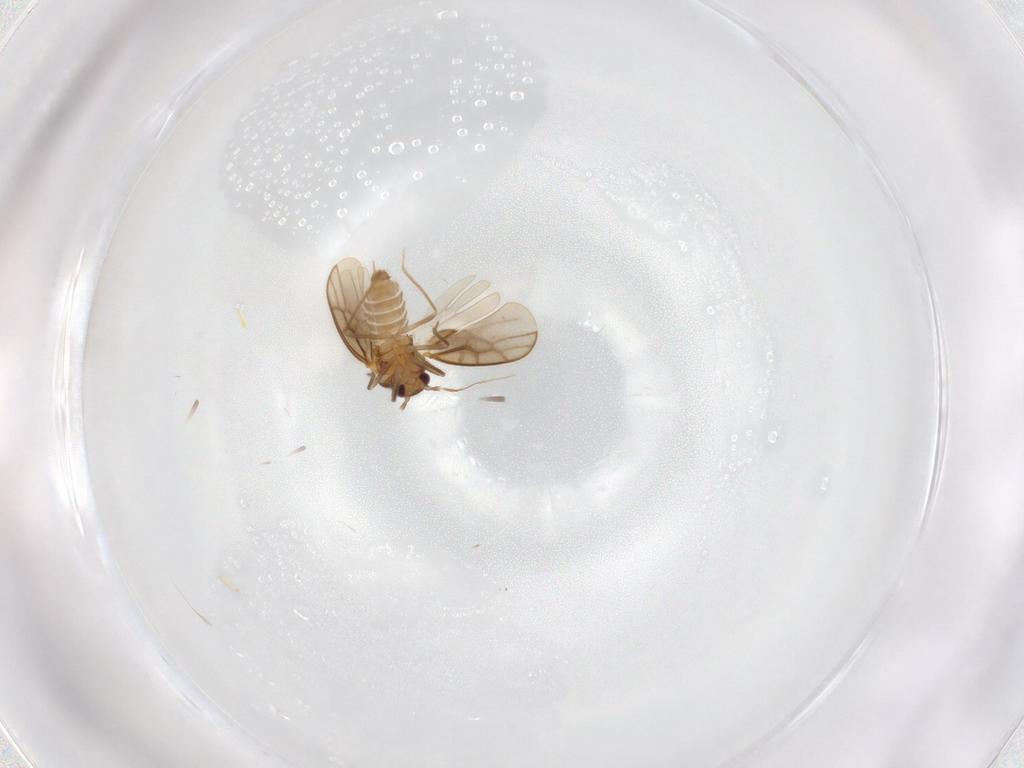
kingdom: Animalia
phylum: Arthropoda
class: Insecta
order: Hemiptera
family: Schizopteridae
